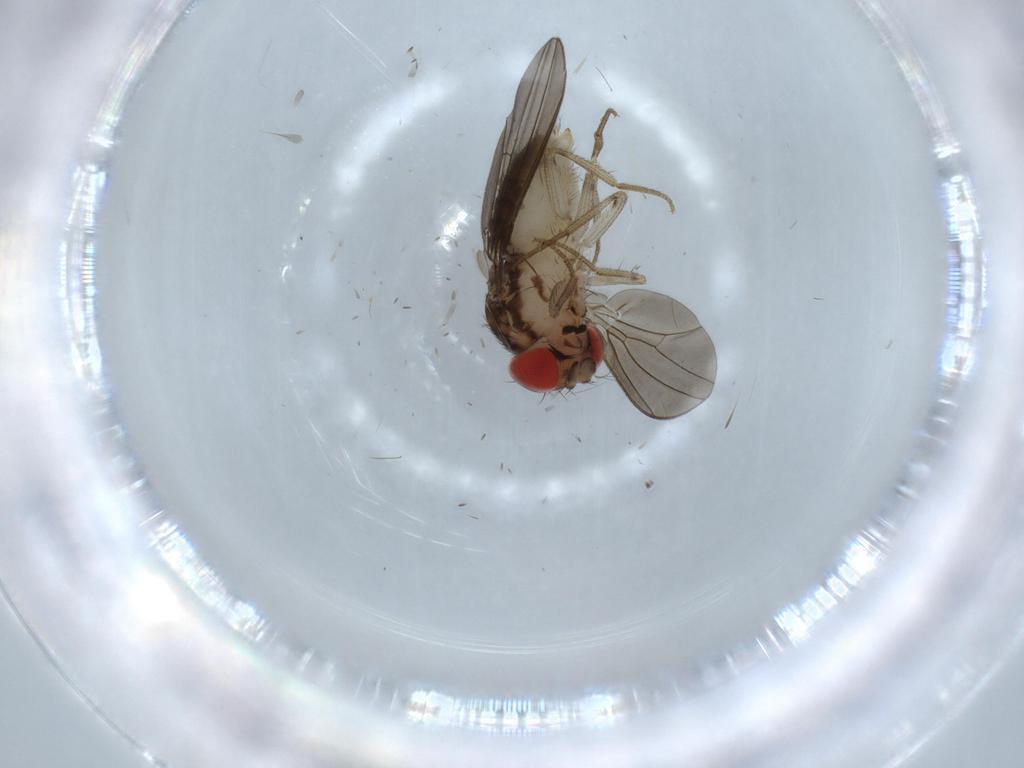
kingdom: Animalia
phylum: Arthropoda
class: Insecta
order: Diptera
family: Drosophilidae
